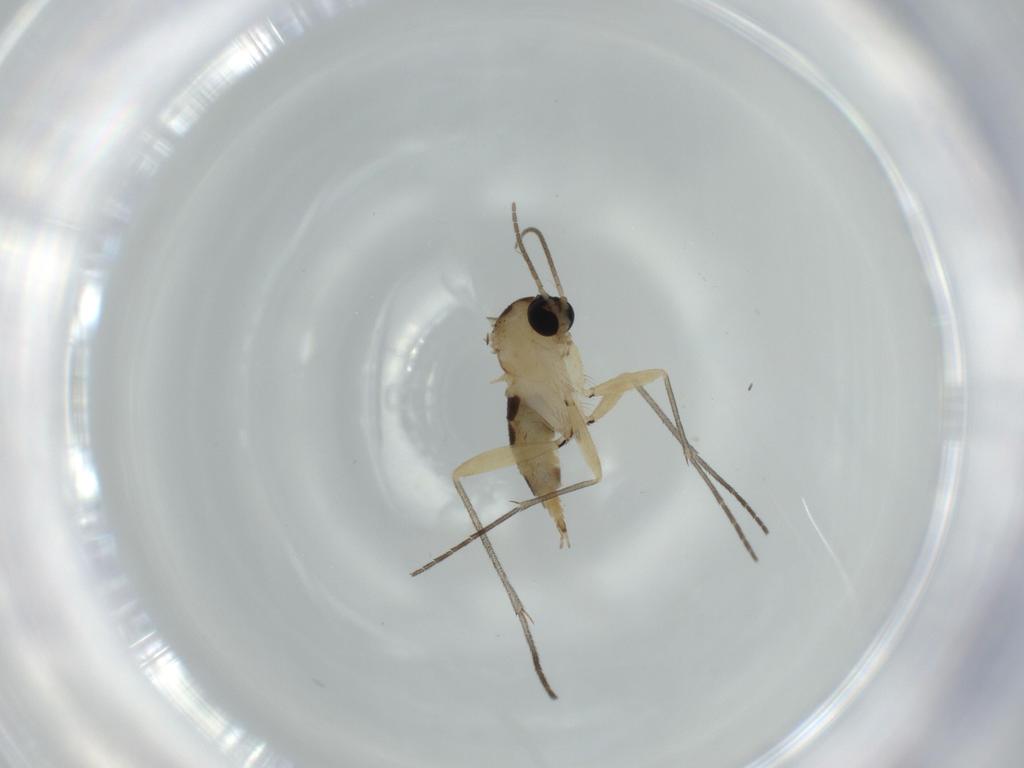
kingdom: Animalia
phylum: Arthropoda
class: Insecta
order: Diptera
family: Sciaridae
